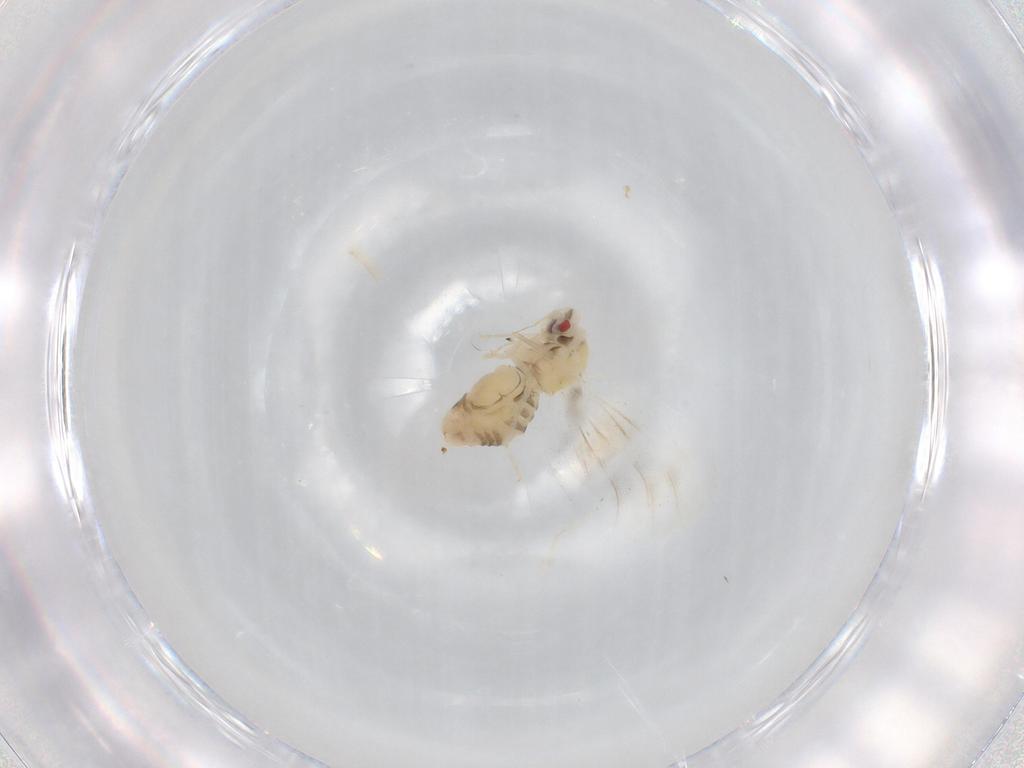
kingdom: Animalia
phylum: Arthropoda
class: Insecta
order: Hemiptera
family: Aleyrodidae
